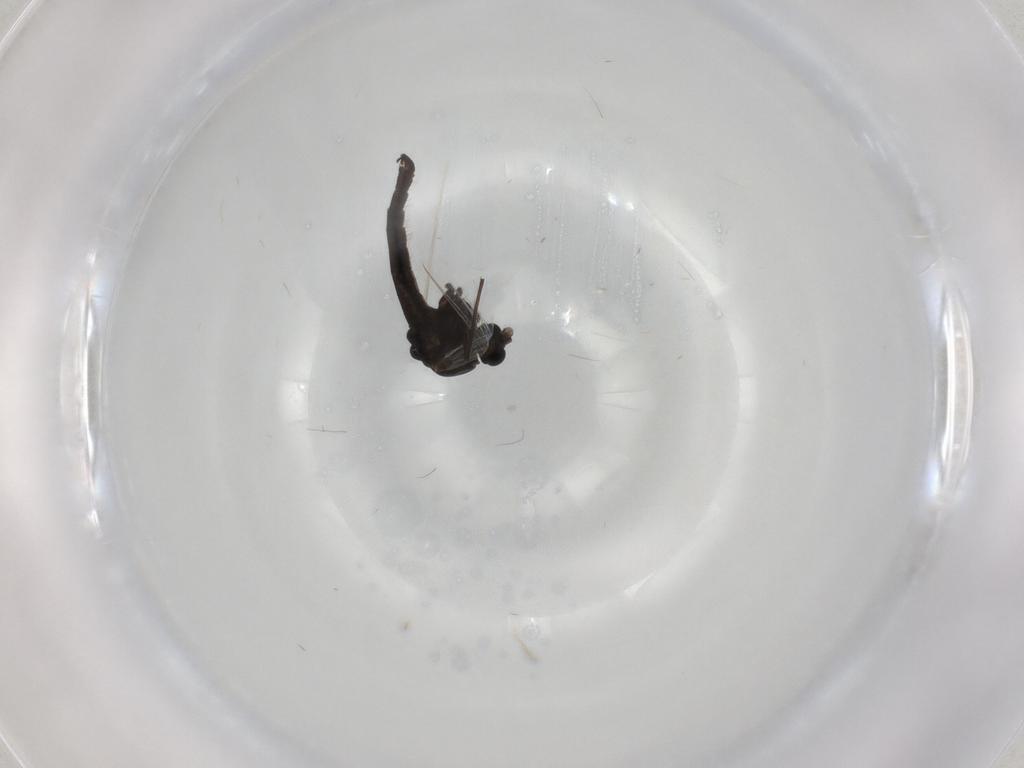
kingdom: Animalia
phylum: Arthropoda
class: Insecta
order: Diptera
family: Chironomidae
